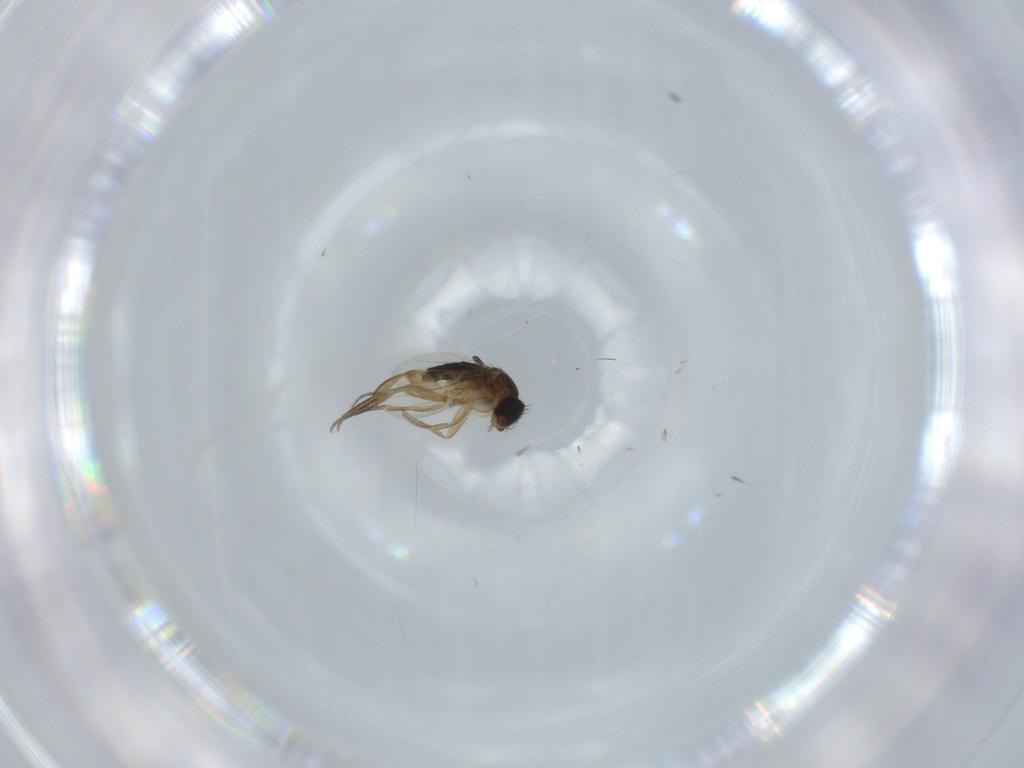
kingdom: Animalia
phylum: Arthropoda
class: Insecta
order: Diptera
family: Phoridae
